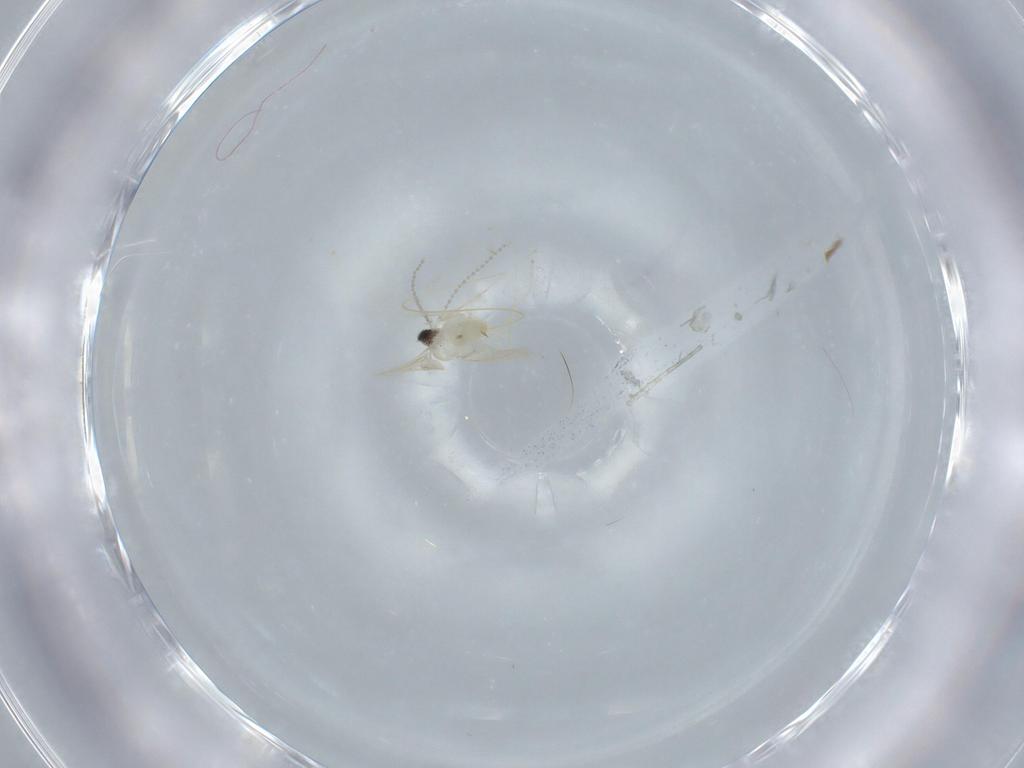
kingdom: Animalia
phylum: Arthropoda
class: Insecta
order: Diptera
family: Cecidomyiidae
